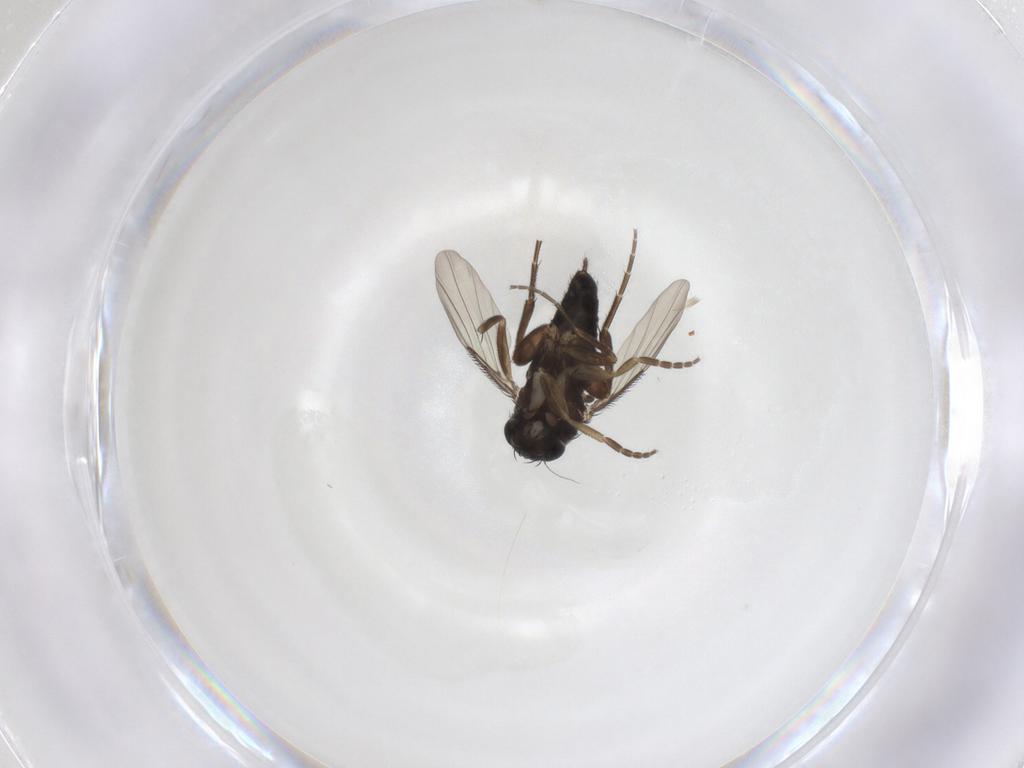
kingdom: Animalia
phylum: Arthropoda
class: Insecta
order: Diptera
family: Phoridae
